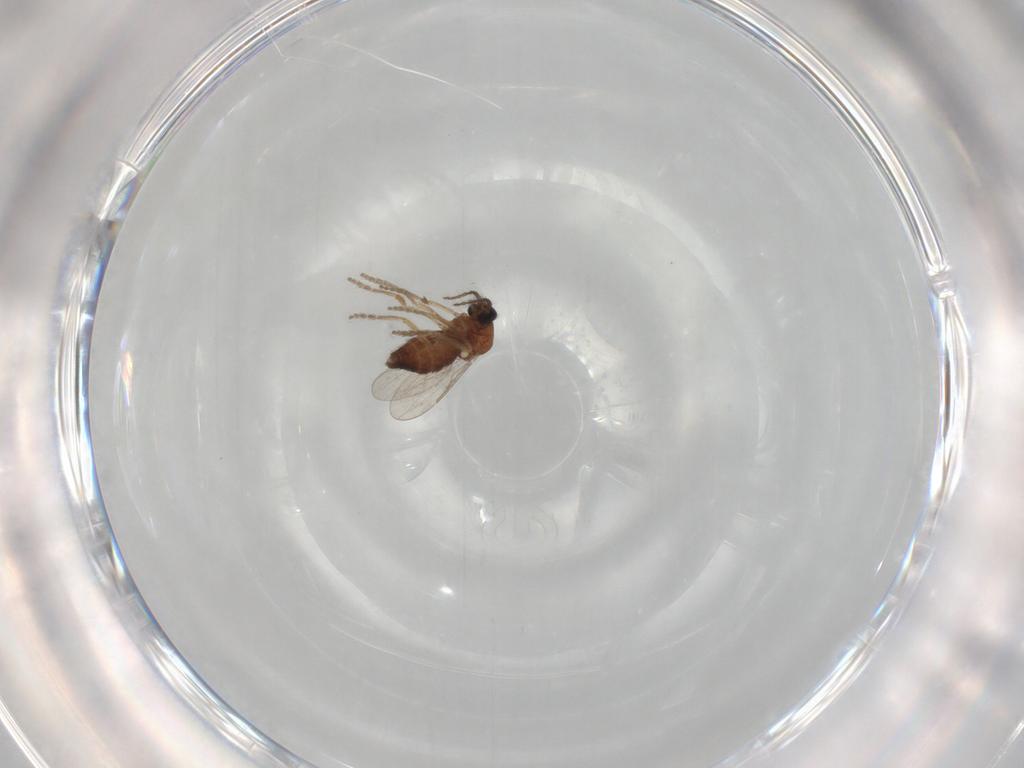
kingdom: Animalia
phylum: Arthropoda
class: Insecta
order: Diptera
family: Ceratopogonidae
